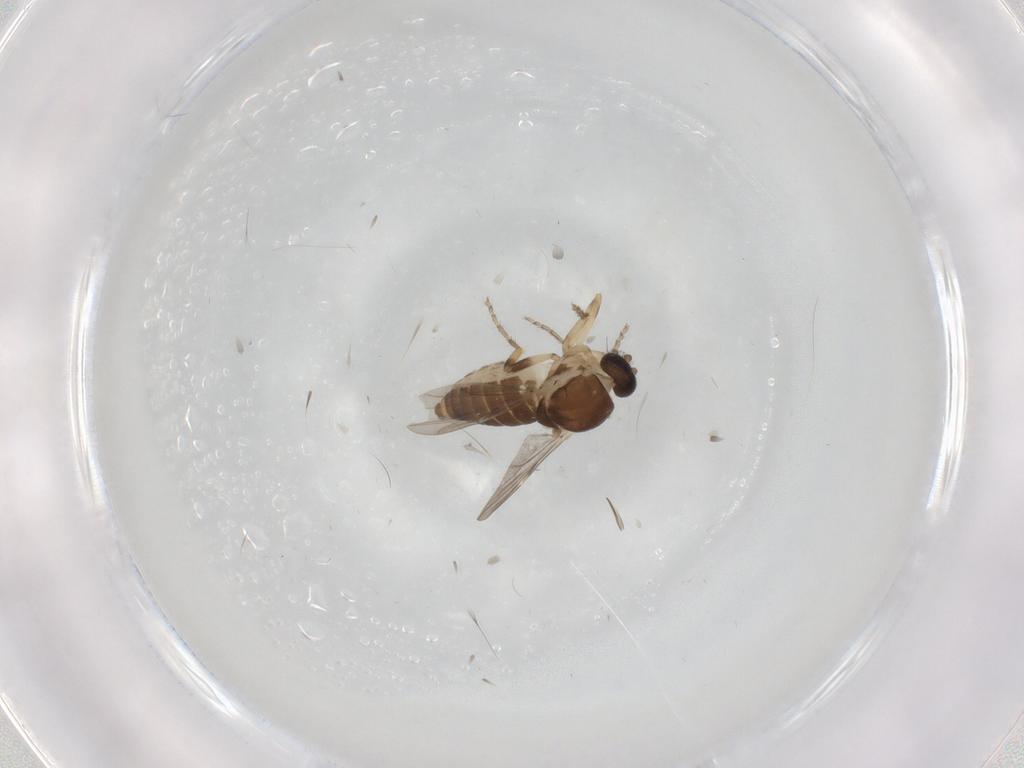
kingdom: Animalia
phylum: Arthropoda
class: Insecta
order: Diptera
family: Ceratopogonidae
